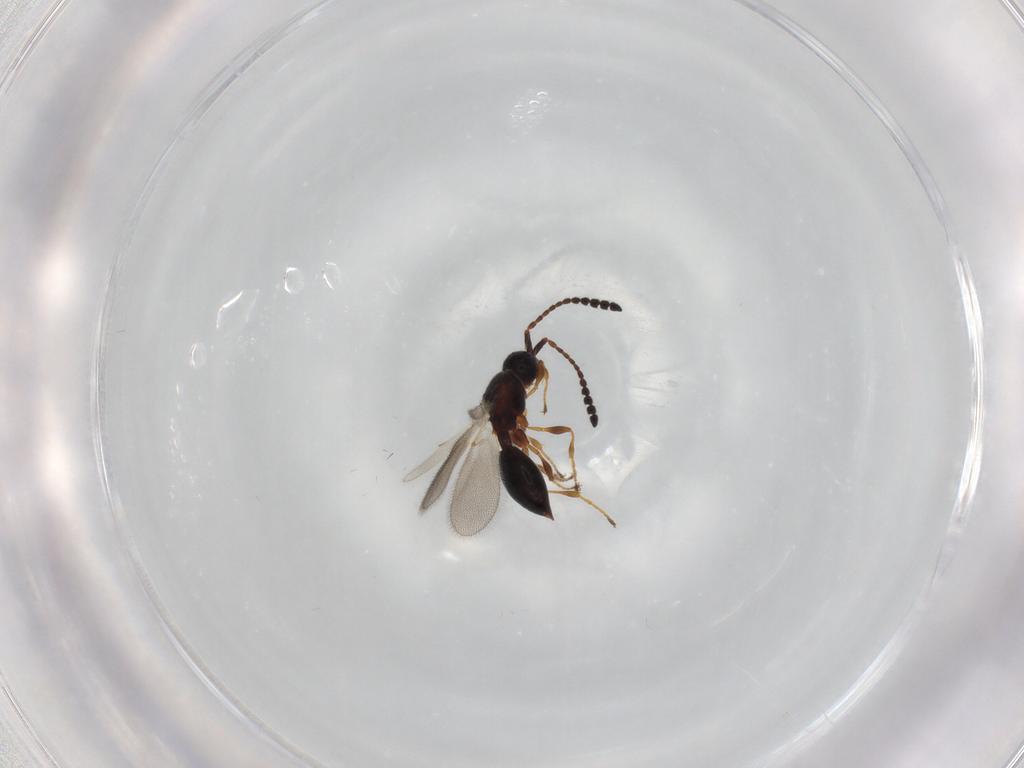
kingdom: Animalia
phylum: Arthropoda
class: Insecta
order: Hymenoptera
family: Diapriidae
